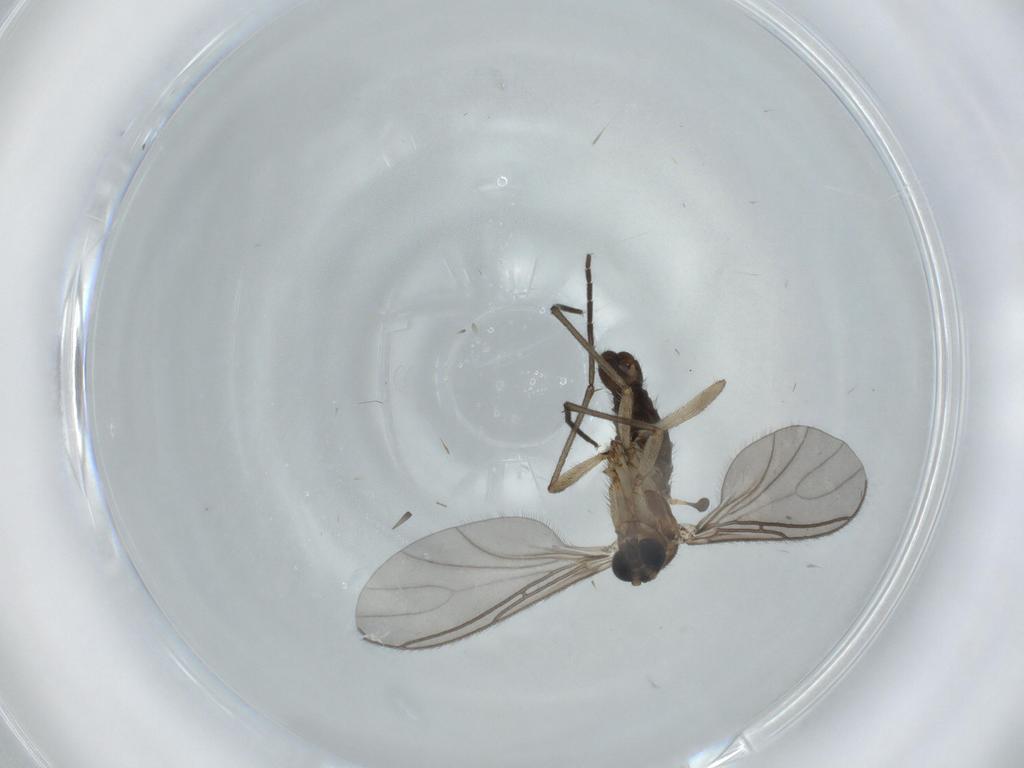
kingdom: Animalia
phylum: Arthropoda
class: Insecta
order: Diptera
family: Sciaridae
